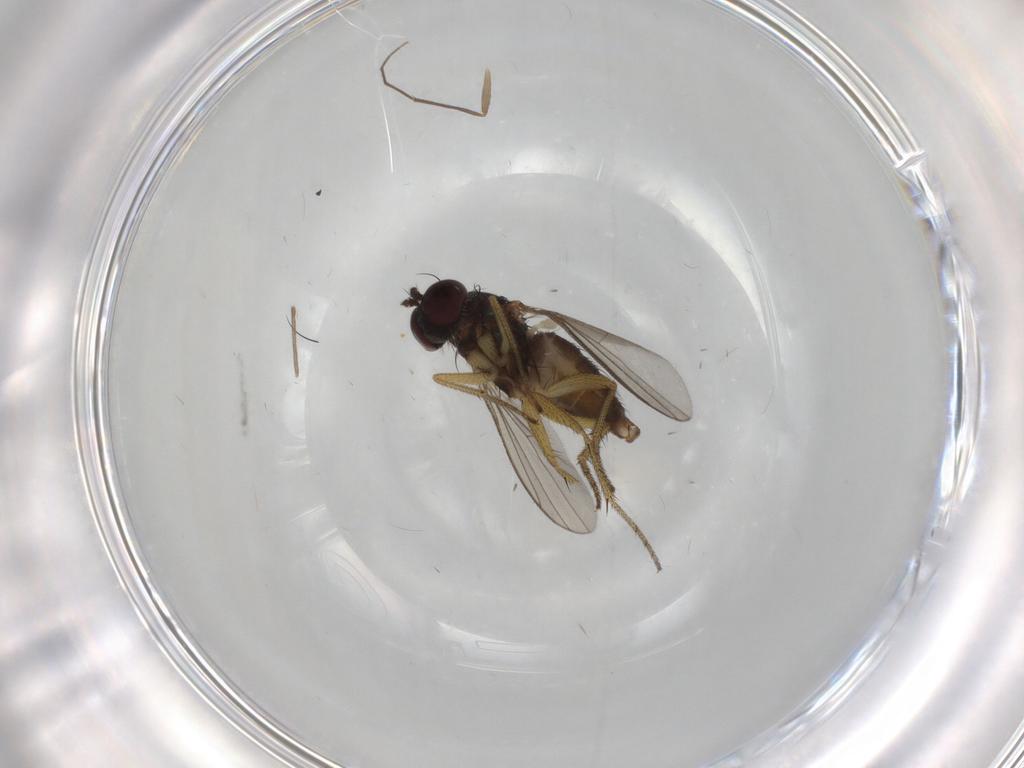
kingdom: Animalia
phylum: Arthropoda
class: Insecta
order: Diptera
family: Chironomidae
